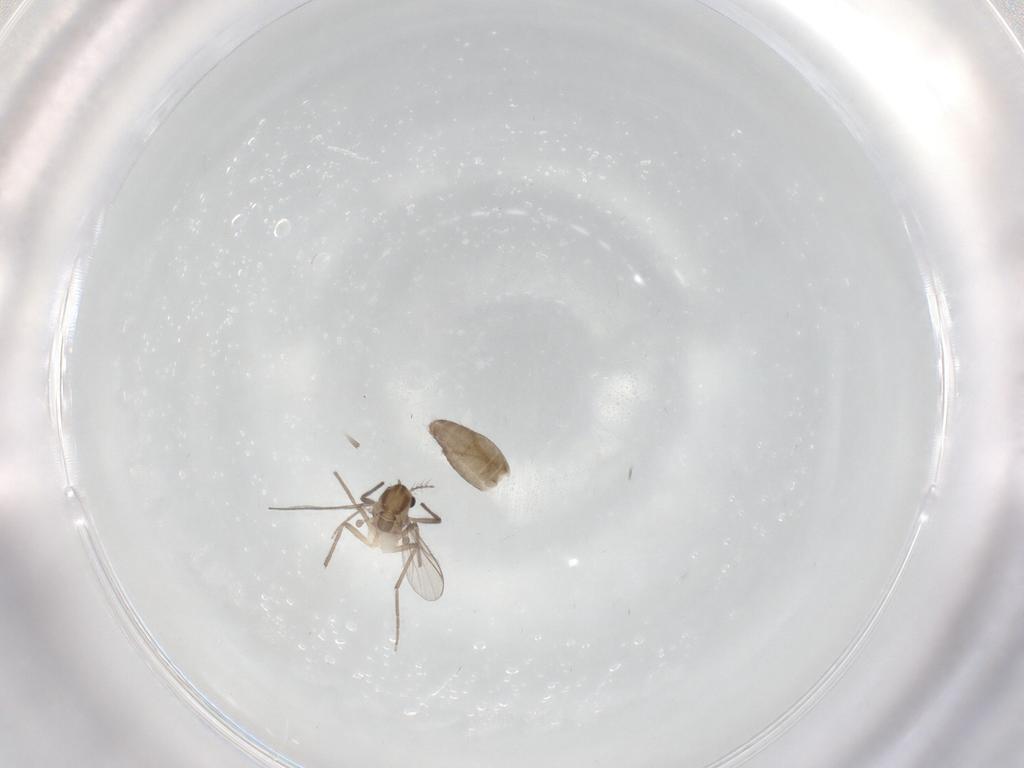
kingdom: Animalia
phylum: Arthropoda
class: Insecta
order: Diptera
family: Chironomidae
